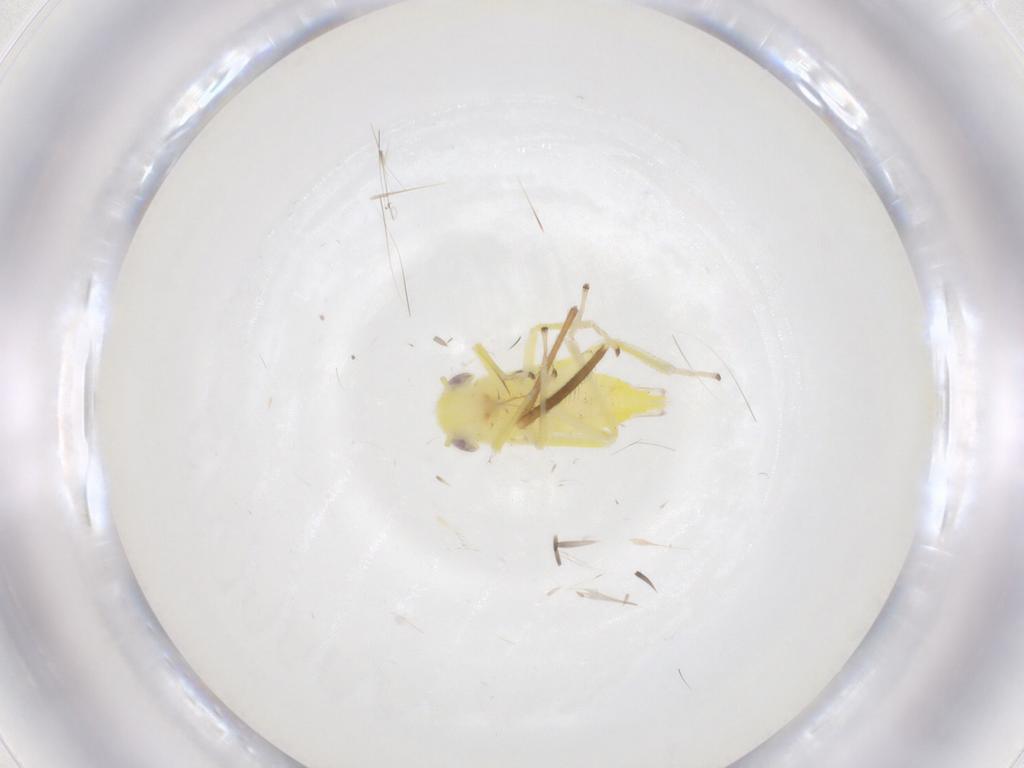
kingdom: Animalia
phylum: Arthropoda
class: Insecta
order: Hemiptera
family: Cicadellidae
